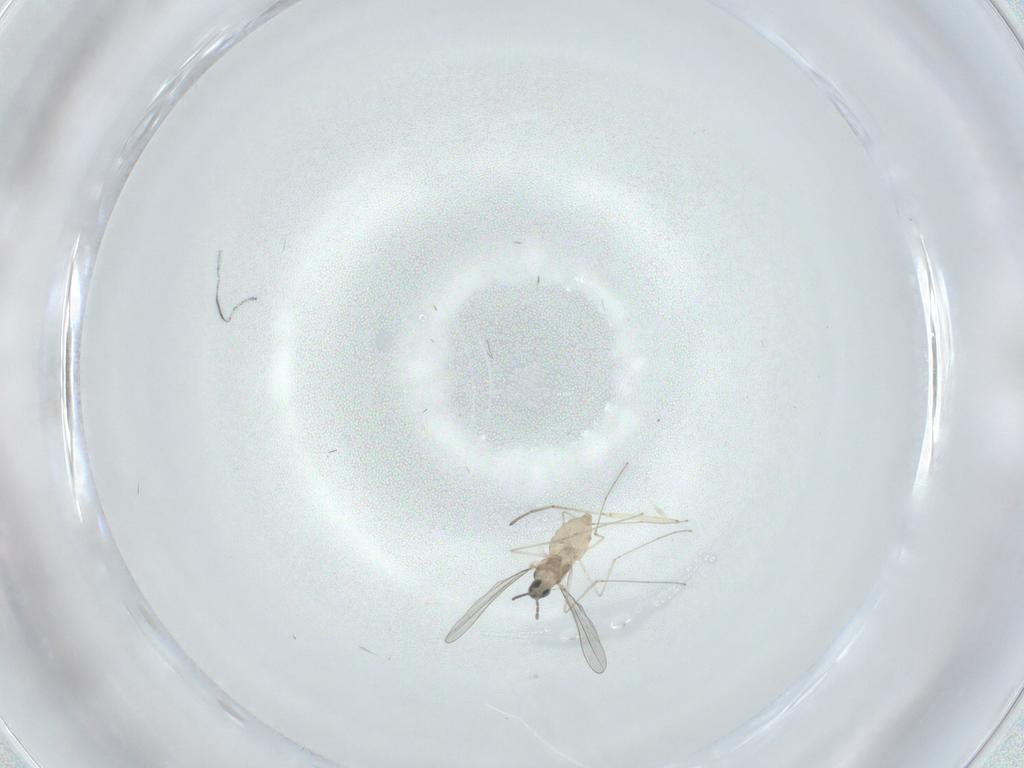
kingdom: Animalia
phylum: Arthropoda
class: Insecta
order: Diptera
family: Cecidomyiidae
